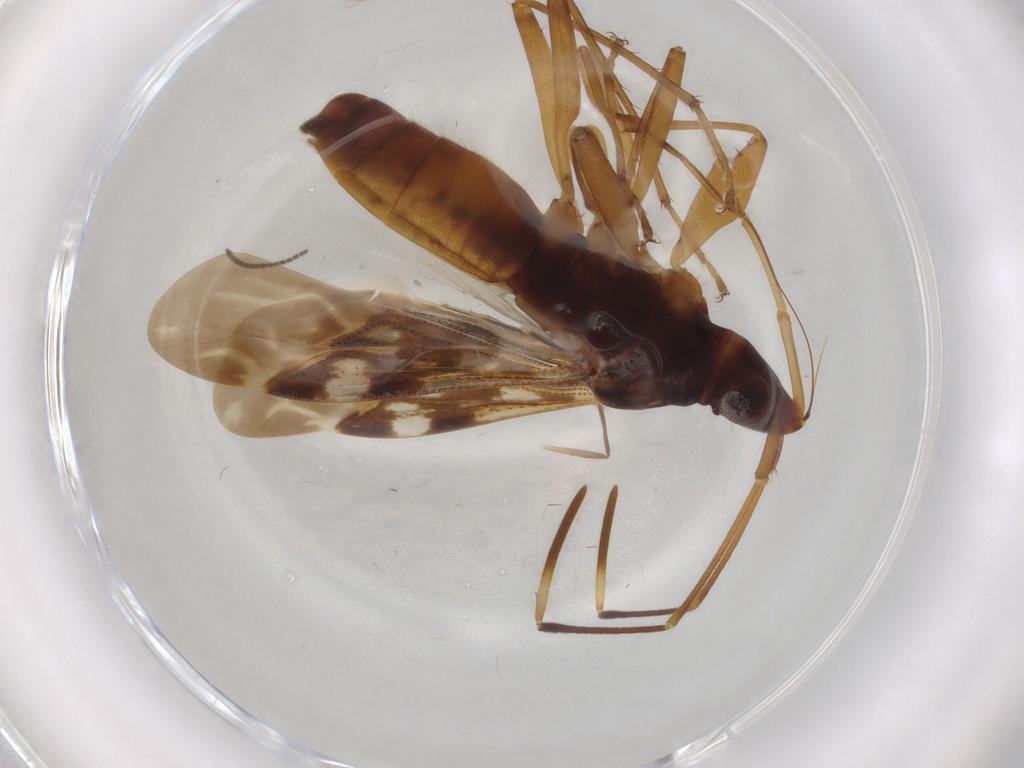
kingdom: Animalia
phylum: Arthropoda
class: Insecta
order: Hemiptera
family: Rhyparochromidae
